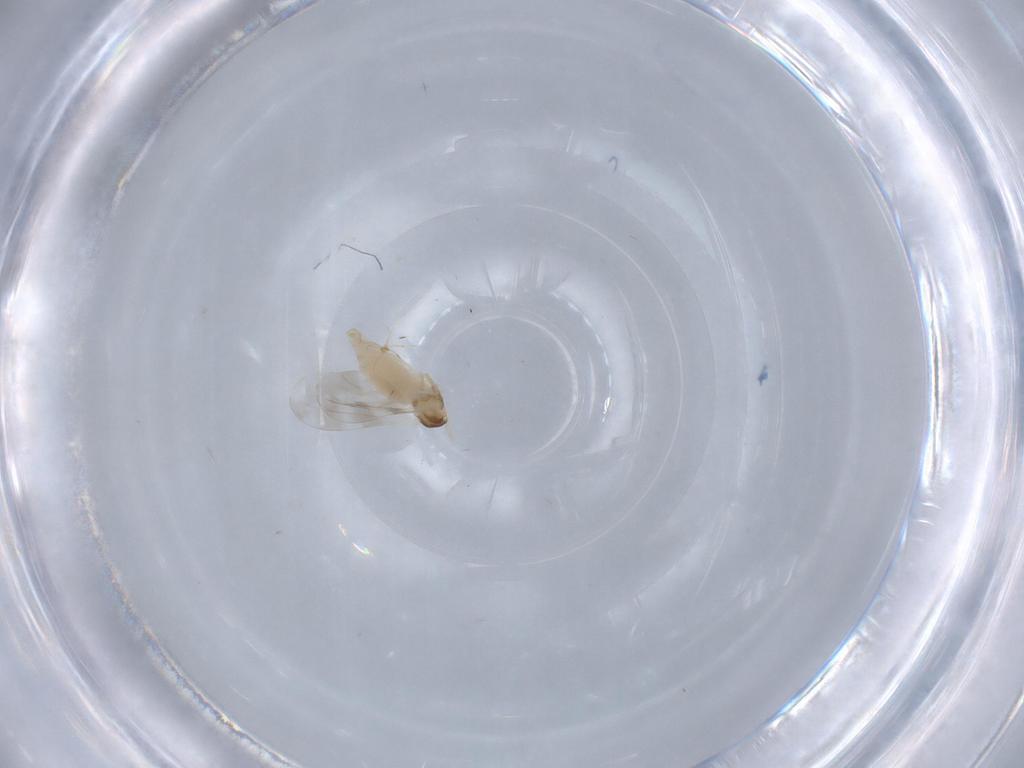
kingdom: Animalia
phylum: Arthropoda
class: Insecta
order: Diptera
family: Cecidomyiidae
